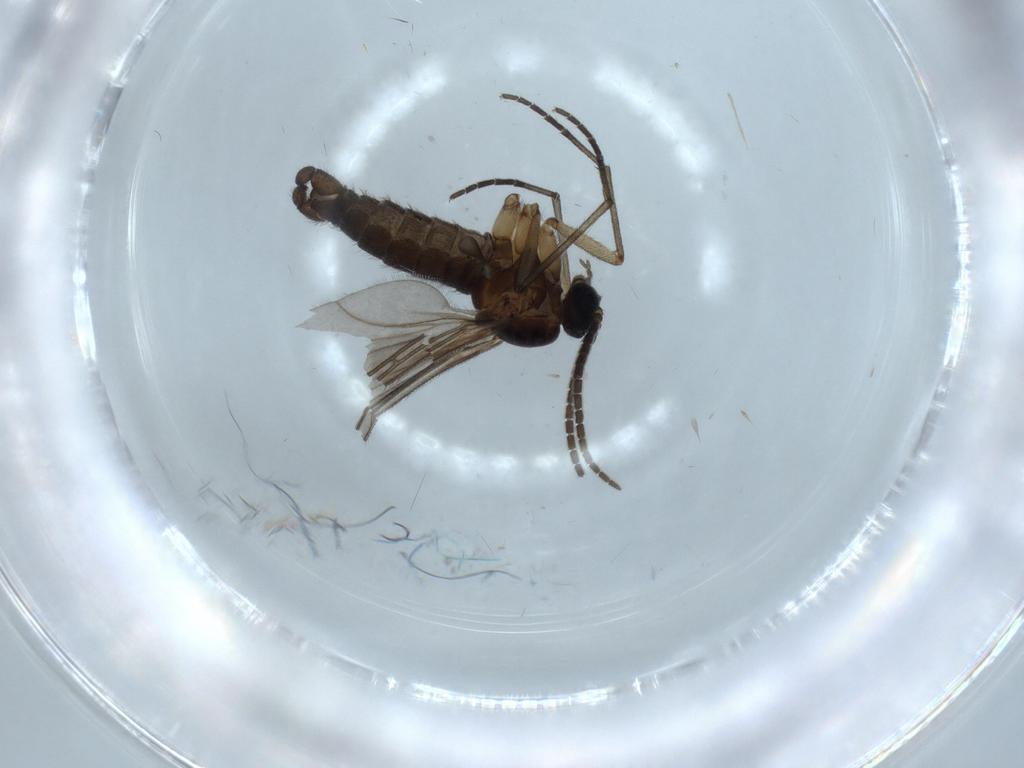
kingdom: Animalia
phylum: Arthropoda
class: Insecta
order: Diptera
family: Sciaridae
